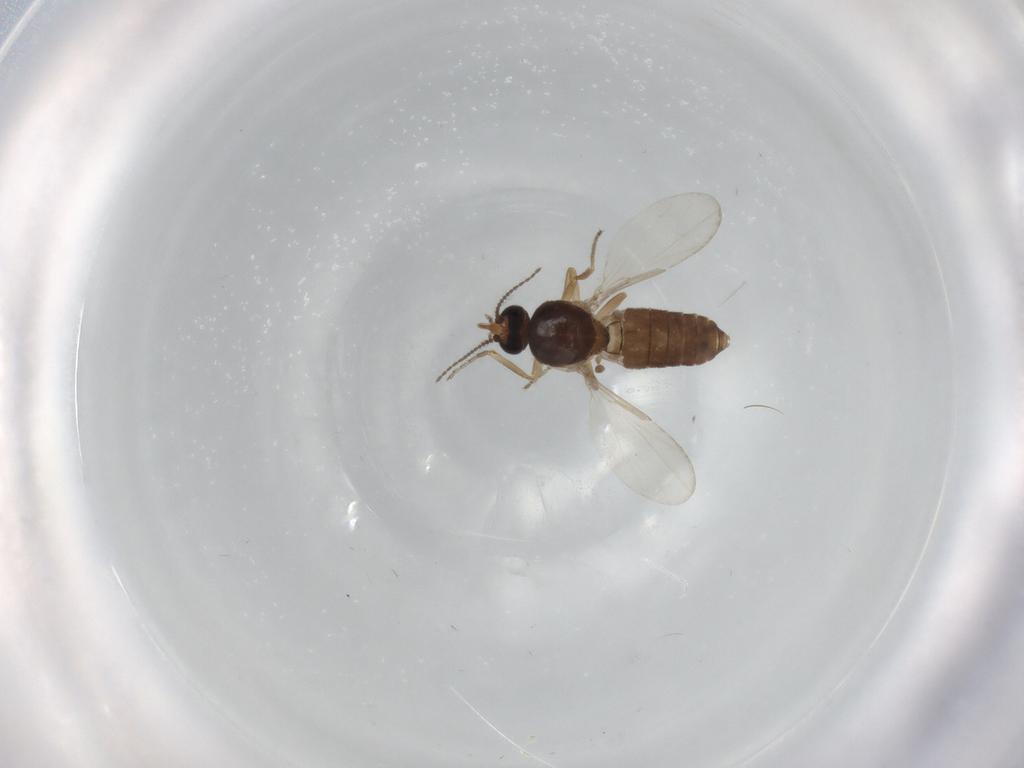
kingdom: Animalia
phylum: Arthropoda
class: Insecta
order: Diptera
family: Ceratopogonidae
